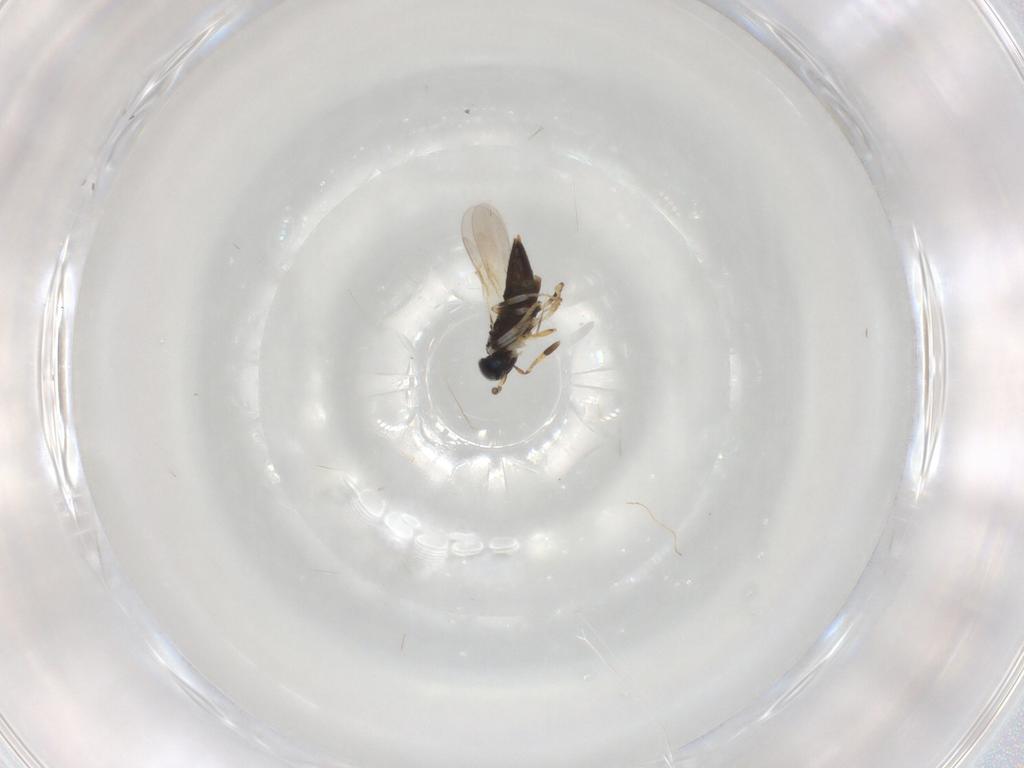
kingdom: Animalia
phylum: Arthropoda
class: Insecta
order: Hymenoptera
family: Encyrtidae
